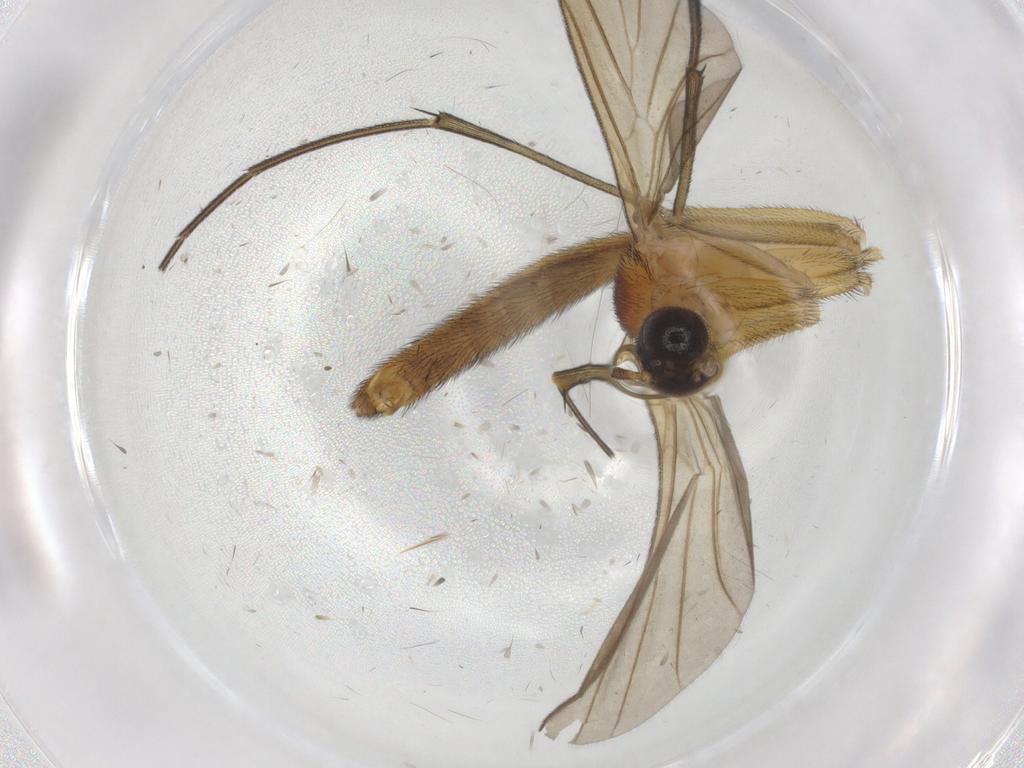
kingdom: Animalia
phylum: Arthropoda
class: Insecta
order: Diptera
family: Keroplatidae
